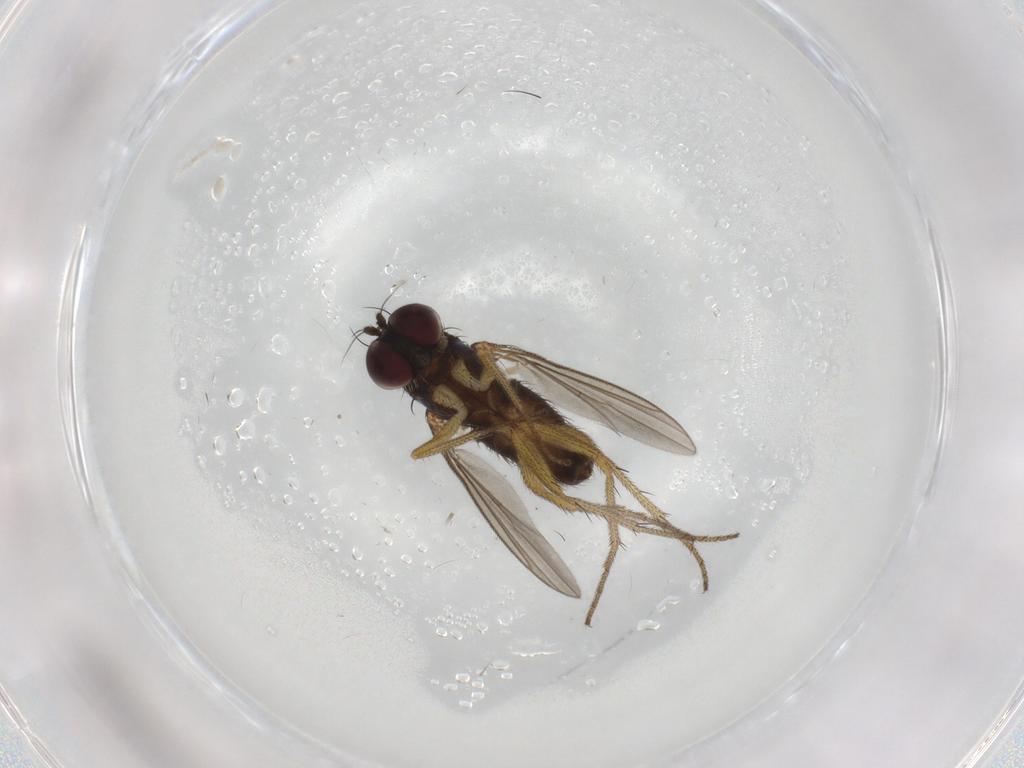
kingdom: Animalia
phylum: Arthropoda
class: Insecta
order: Diptera
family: Dolichopodidae
